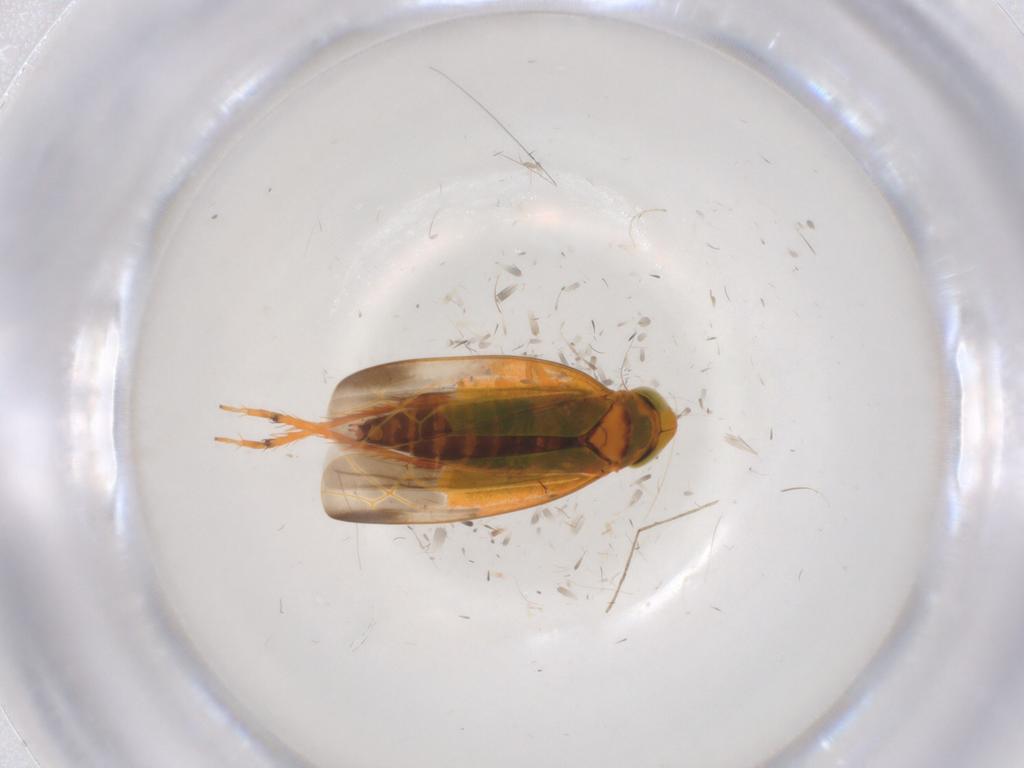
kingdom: Animalia
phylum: Arthropoda
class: Insecta
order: Hemiptera
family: Cicadellidae
